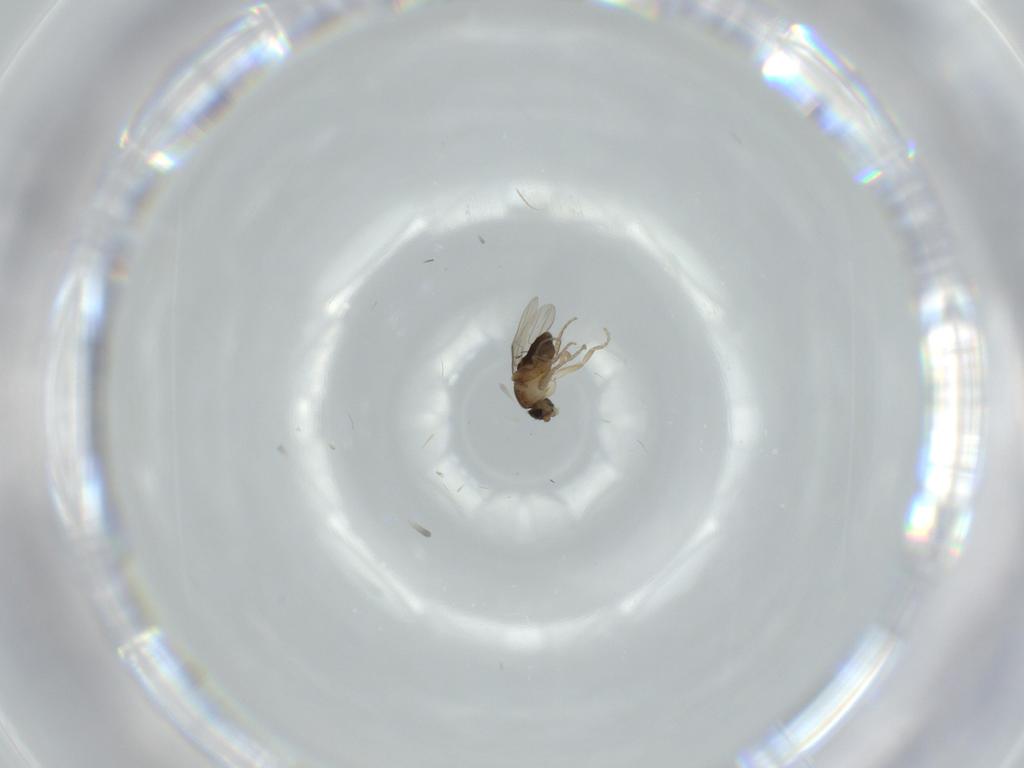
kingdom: Animalia
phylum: Arthropoda
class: Insecta
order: Diptera
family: Phoridae
